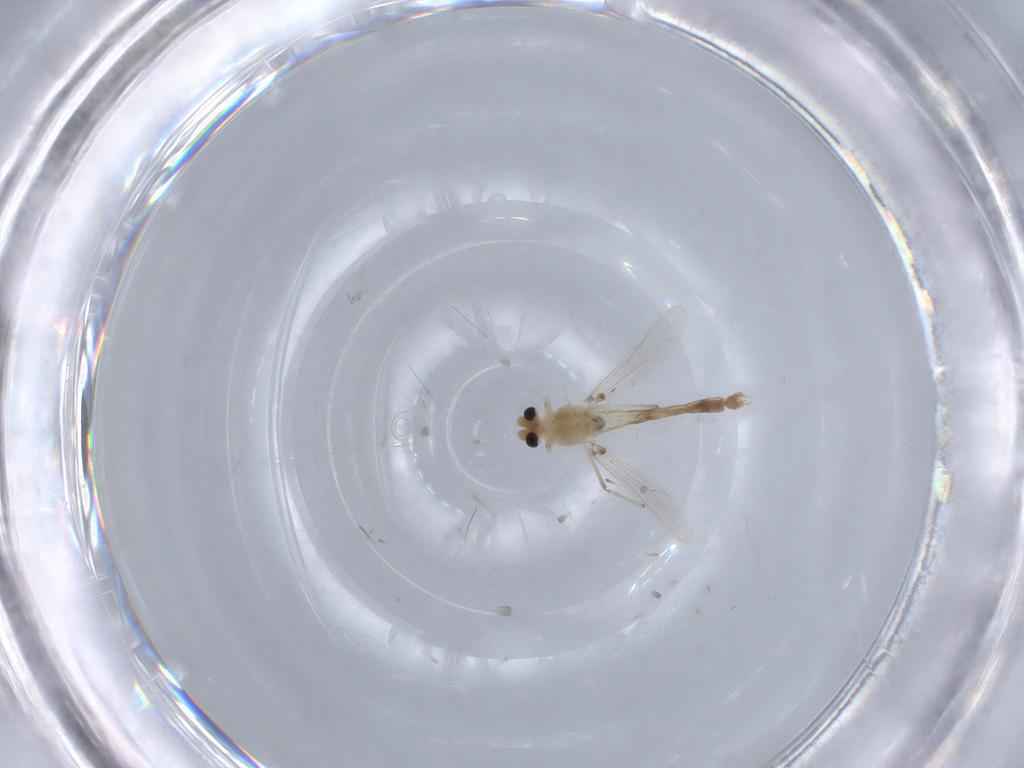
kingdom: Animalia
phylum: Arthropoda
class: Insecta
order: Diptera
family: Chironomidae
